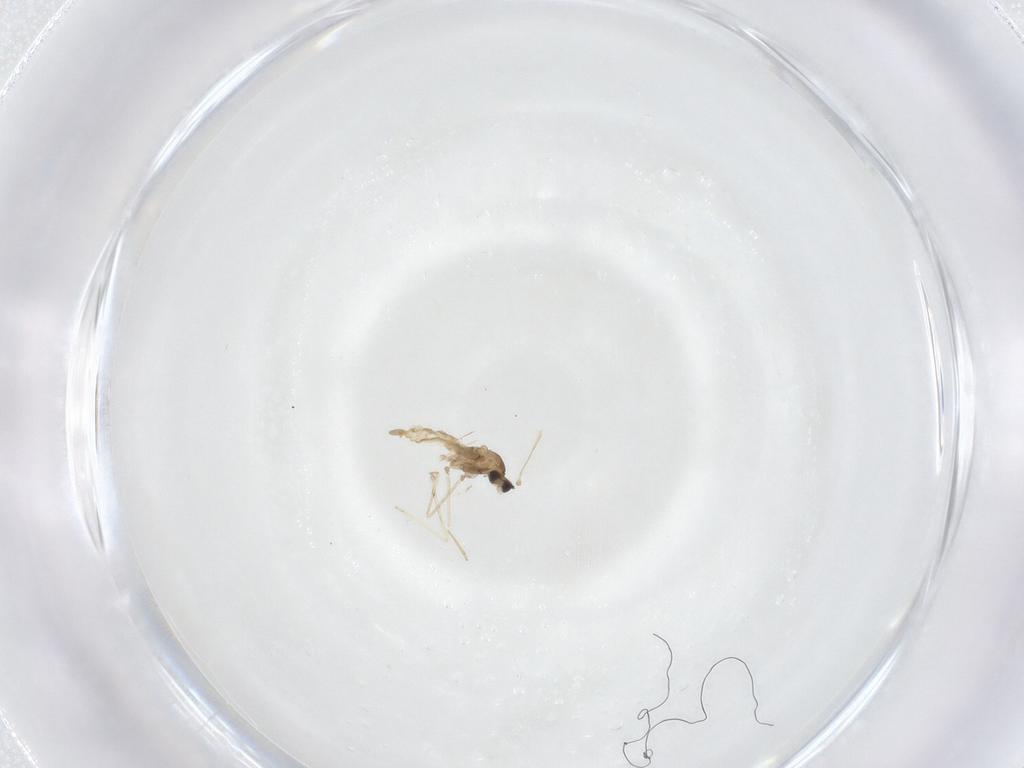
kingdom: Animalia
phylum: Arthropoda
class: Insecta
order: Diptera
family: Cecidomyiidae
